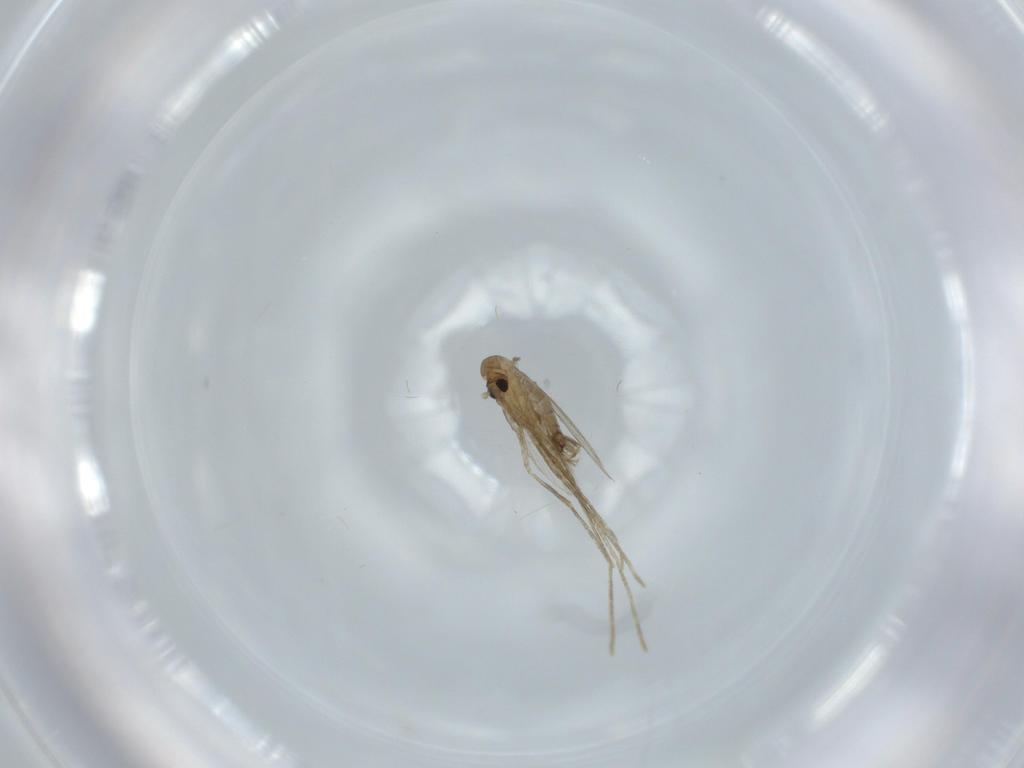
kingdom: Animalia
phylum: Arthropoda
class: Insecta
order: Diptera
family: Psychodidae
